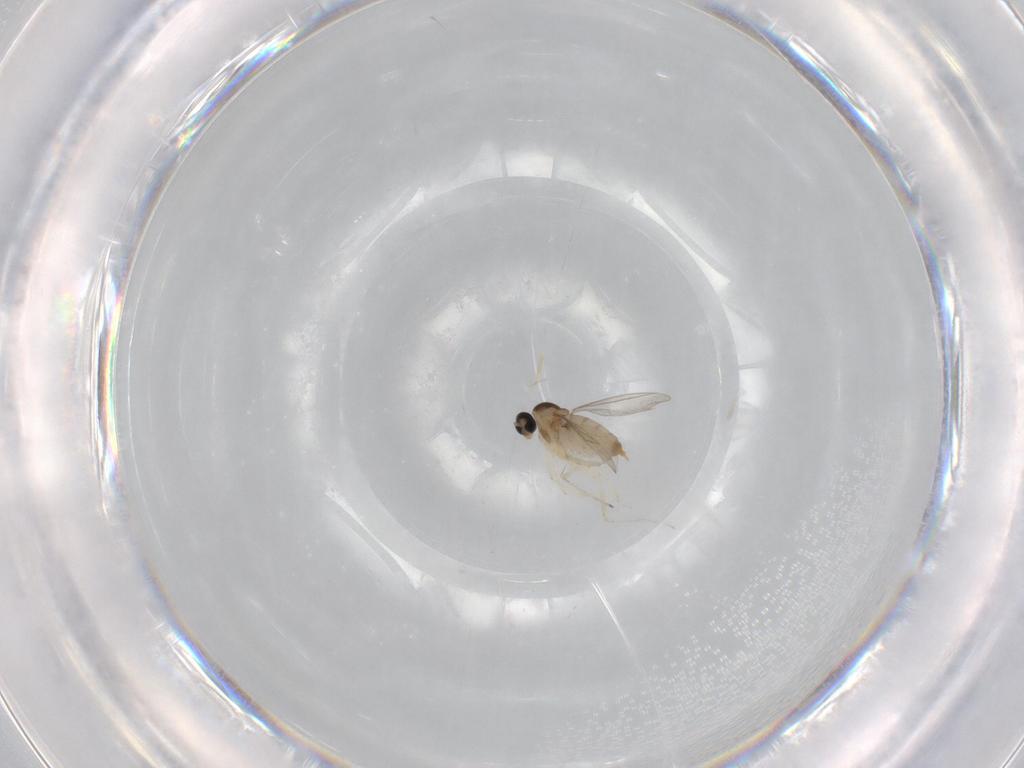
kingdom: Animalia
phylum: Arthropoda
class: Insecta
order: Diptera
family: Cecidomyiidae
